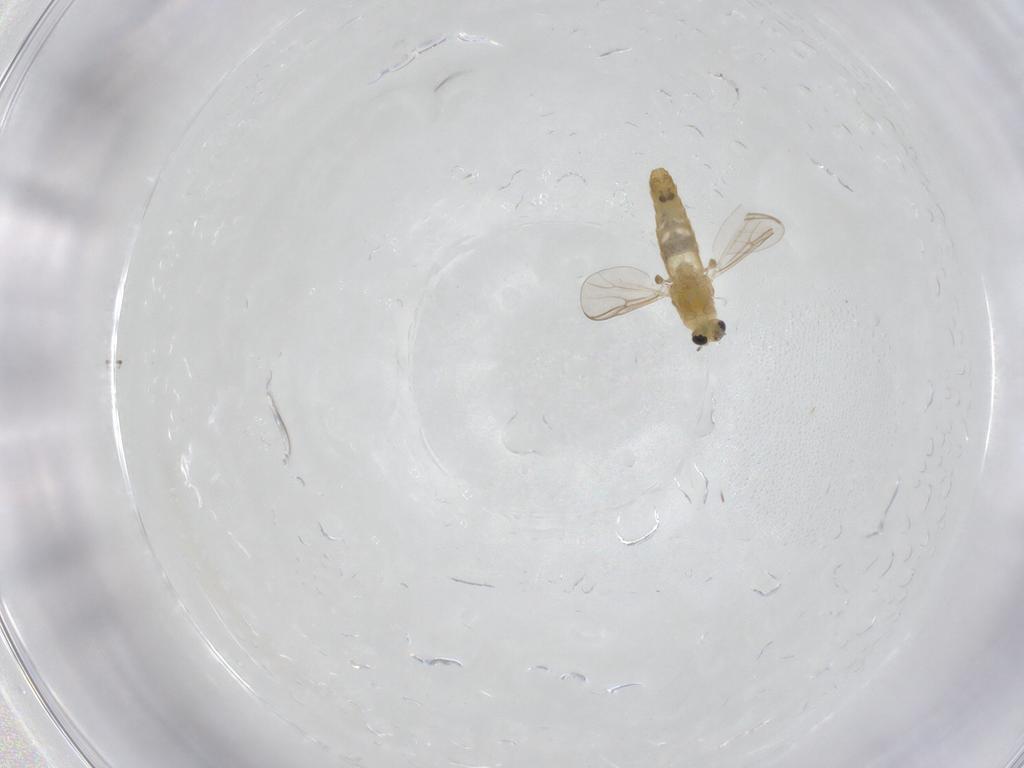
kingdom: Animalia
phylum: Arthropoda
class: Insecta
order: Diptera
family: Chironomidae
